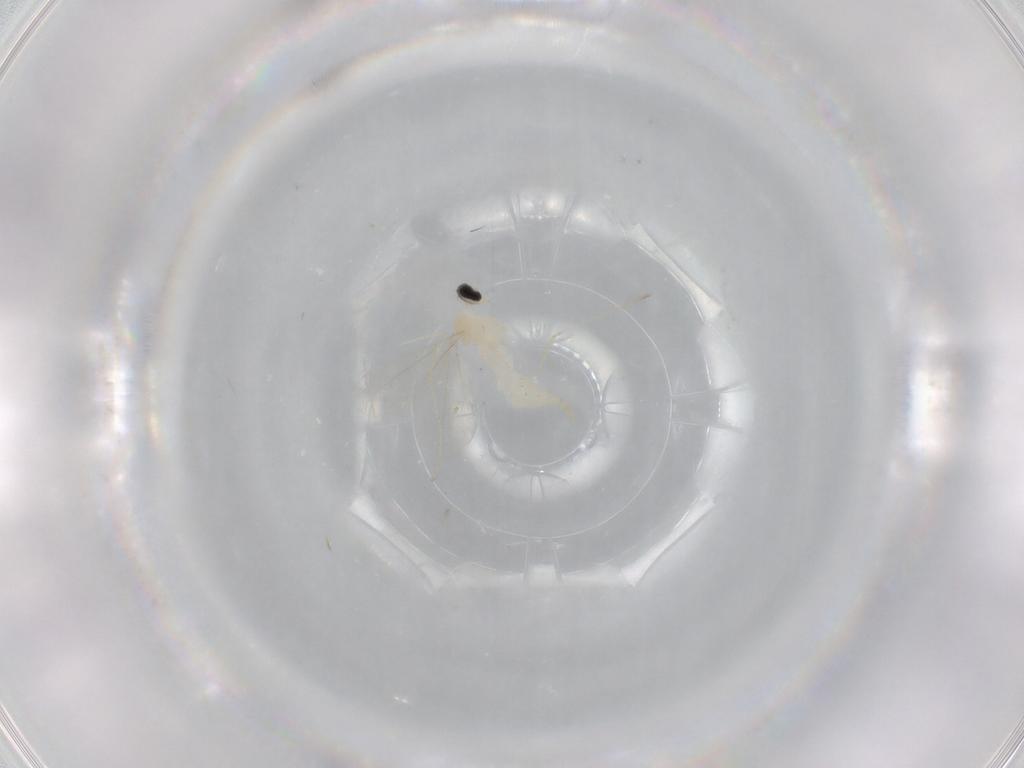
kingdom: Animalia
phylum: Arthropoda
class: Insecta
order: Diptera
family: Cecidomyiidae
